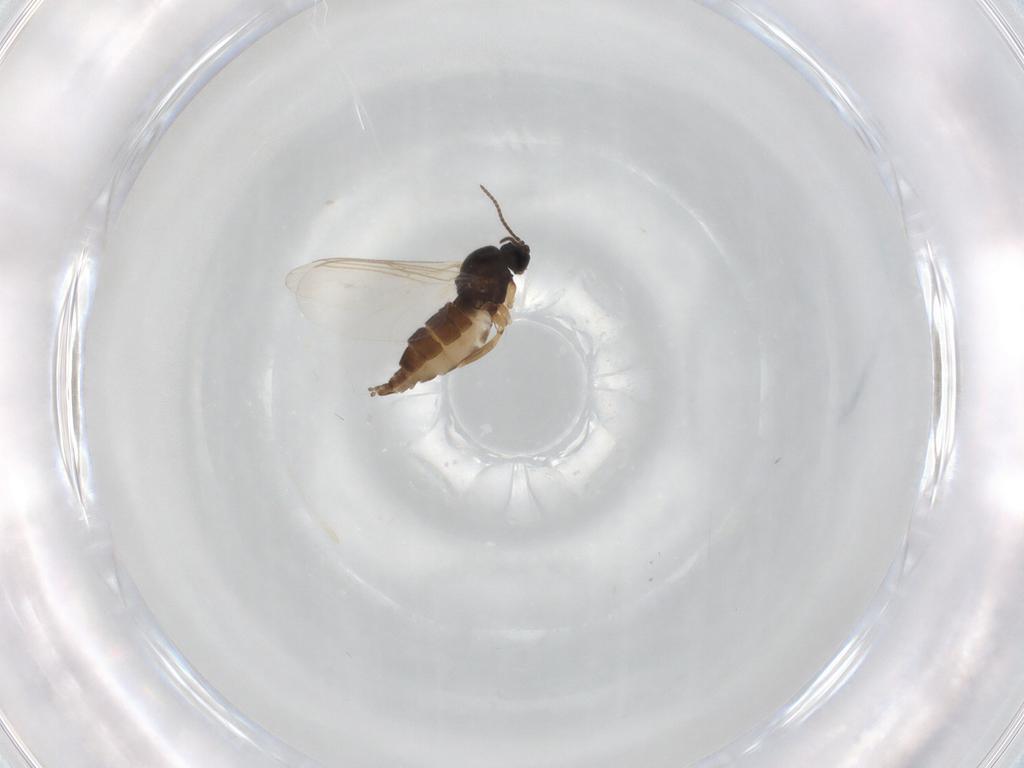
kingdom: Animalia
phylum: Arthropoda
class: Insecta
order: Diptera
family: Sciaridae
